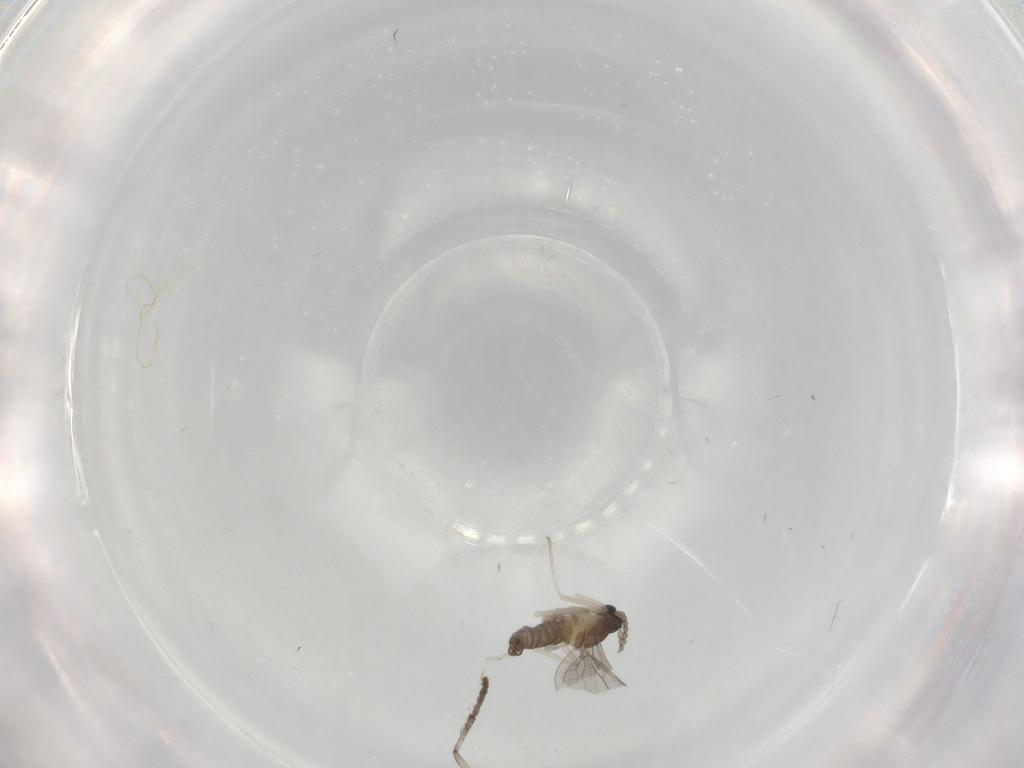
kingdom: Animalia
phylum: Arthropoda
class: Insecta
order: Diptera
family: Cecidomyiidae
